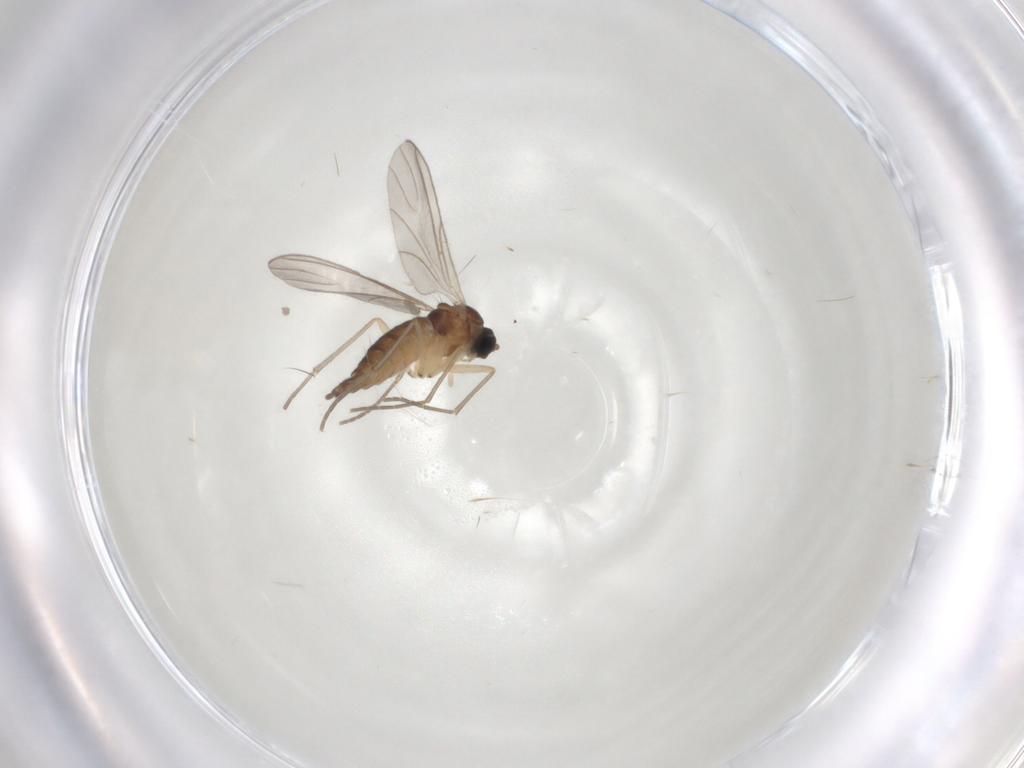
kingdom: Animalia
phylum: Arthropoda
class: Insecta
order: Diptera
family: Sciaridae
